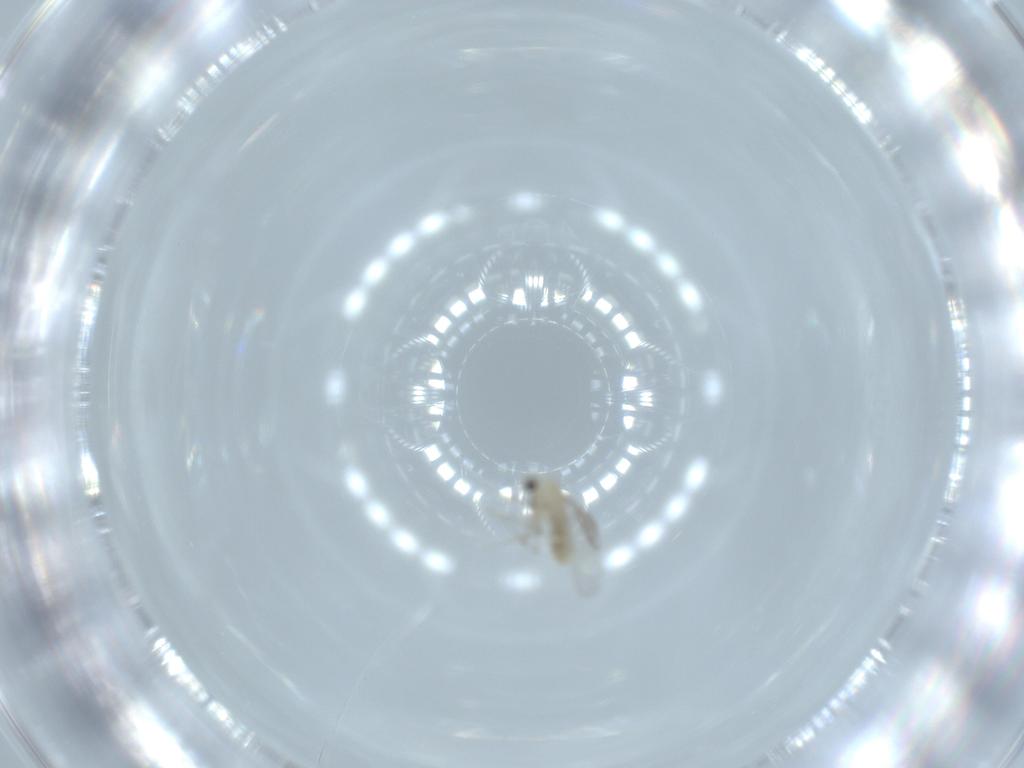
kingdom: Animalia
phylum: Arthropoda
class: Insecta
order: Diptera
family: Chironomidae
